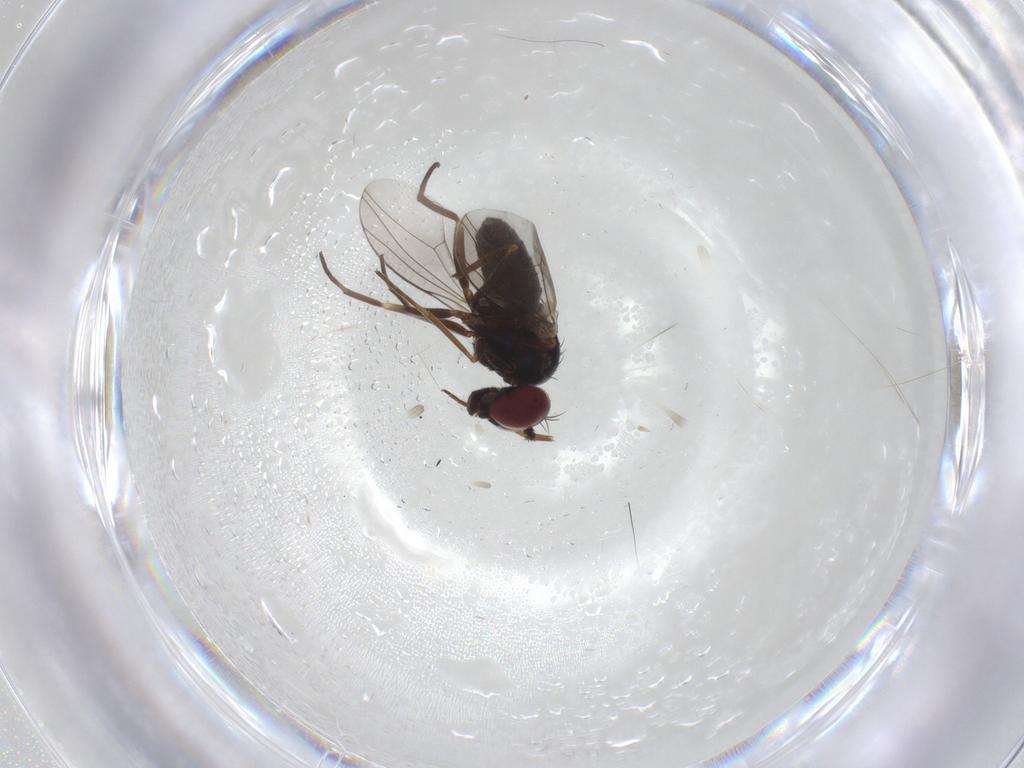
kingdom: Animalia
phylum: Arthropoda
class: Insecta
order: Diptera
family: Dolichopodidae
